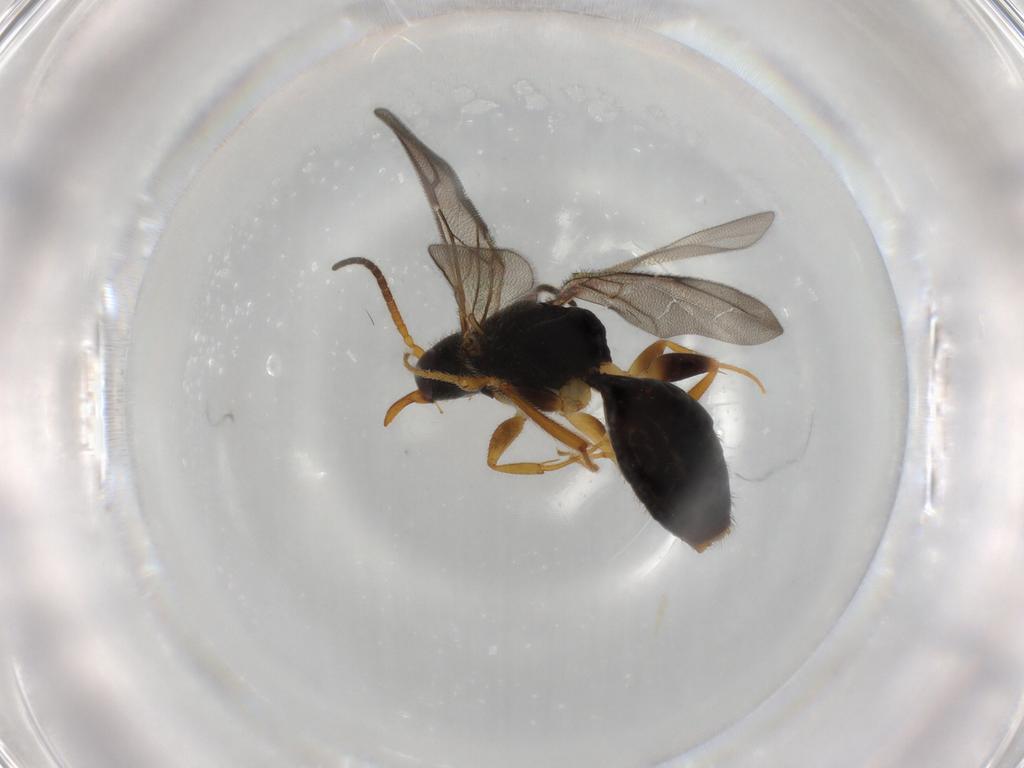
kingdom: Animalia
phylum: Arthropoda
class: Insecta
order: Hymenoptera
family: Bethylidae
